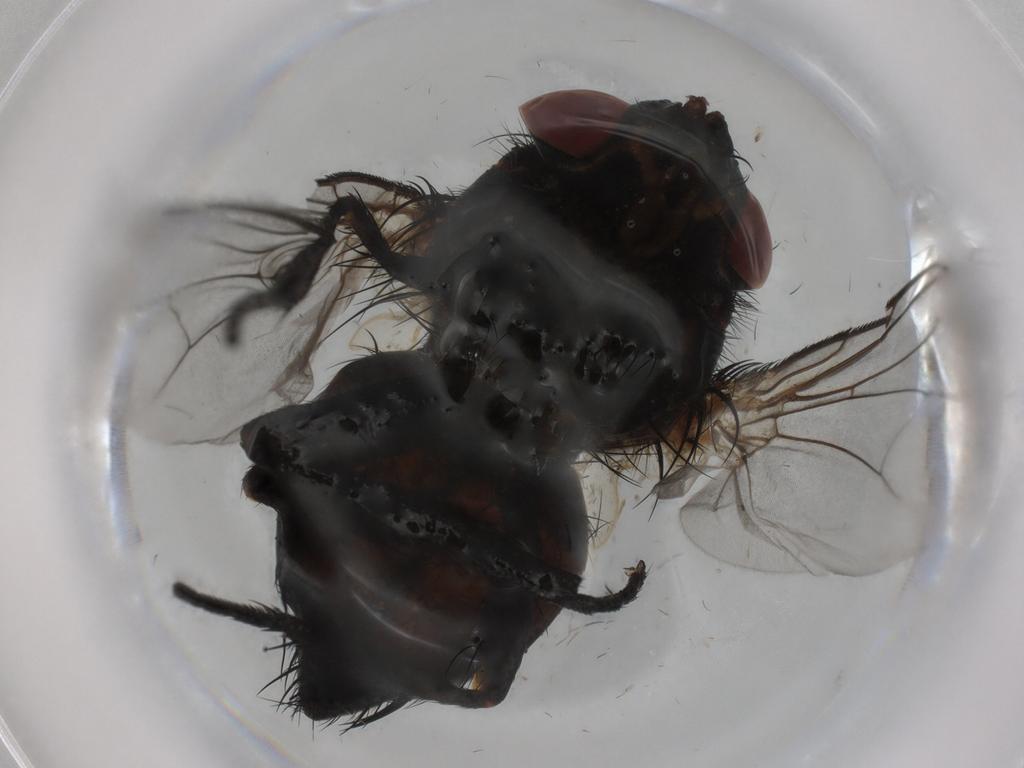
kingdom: Animalia
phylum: Arthropoda
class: Insecta
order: Diptera
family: Tachinidae
